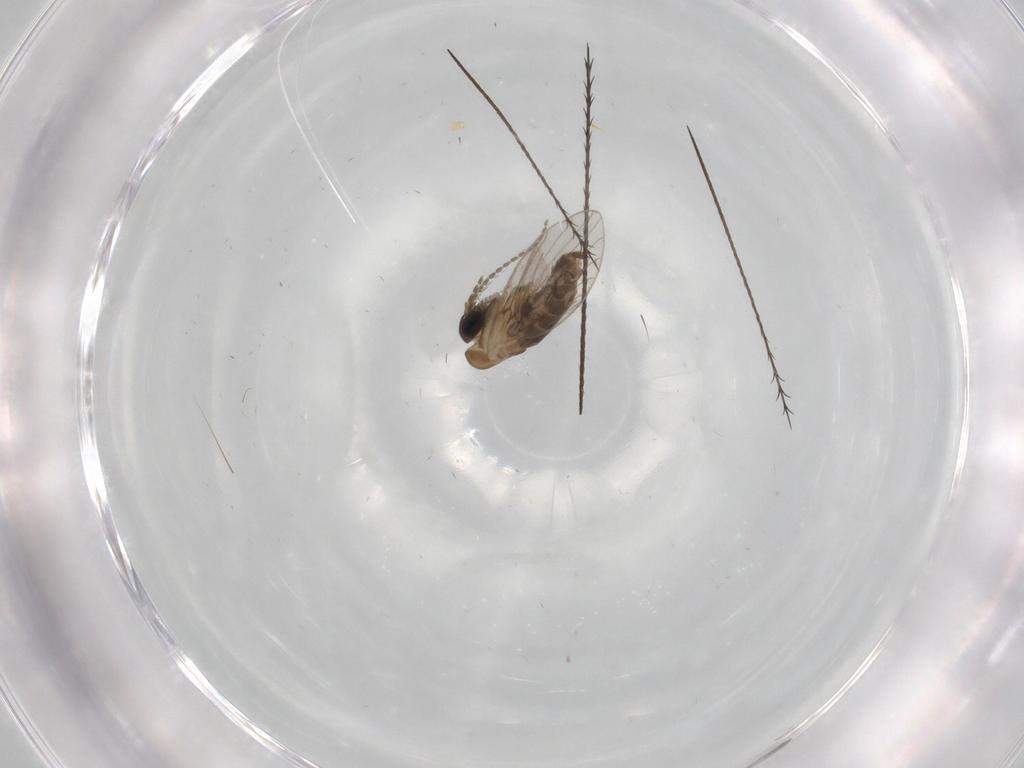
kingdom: Animalia
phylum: Arthropoda
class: Insecta
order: Diptera
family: Psychodidae
